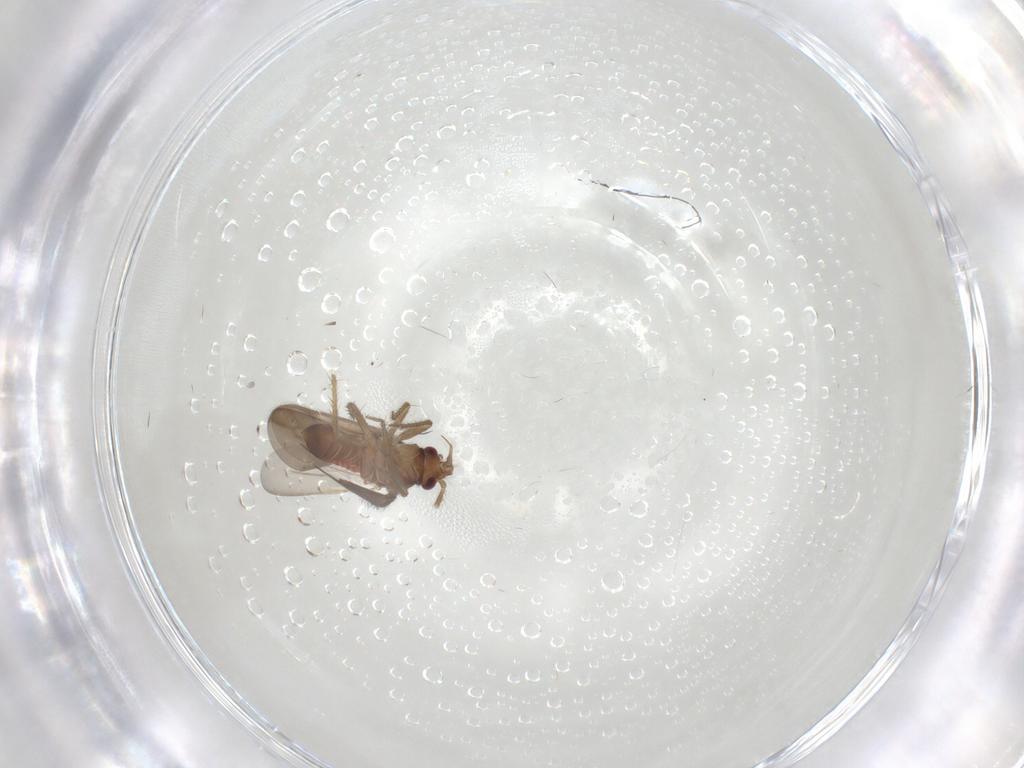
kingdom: Animalia
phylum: Arthropoda
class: Insecta
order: Hemiptera
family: Ceratocombidae
